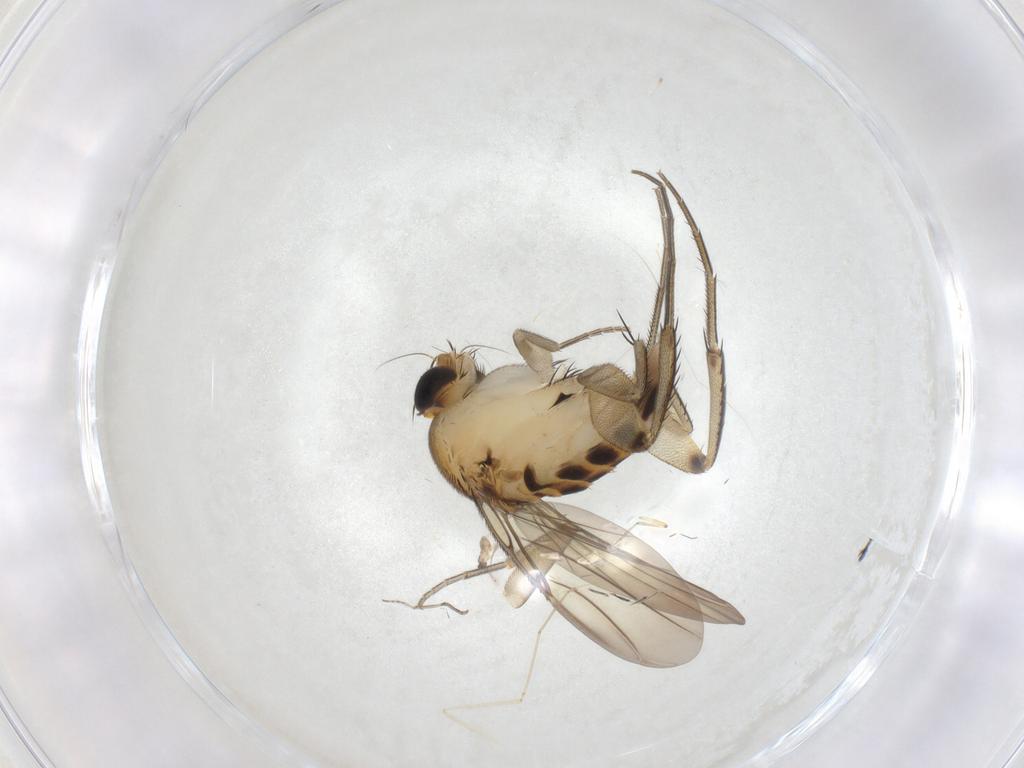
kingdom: Animalia
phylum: Arthropoda
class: Insecta
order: Diptera
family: Phoridae
